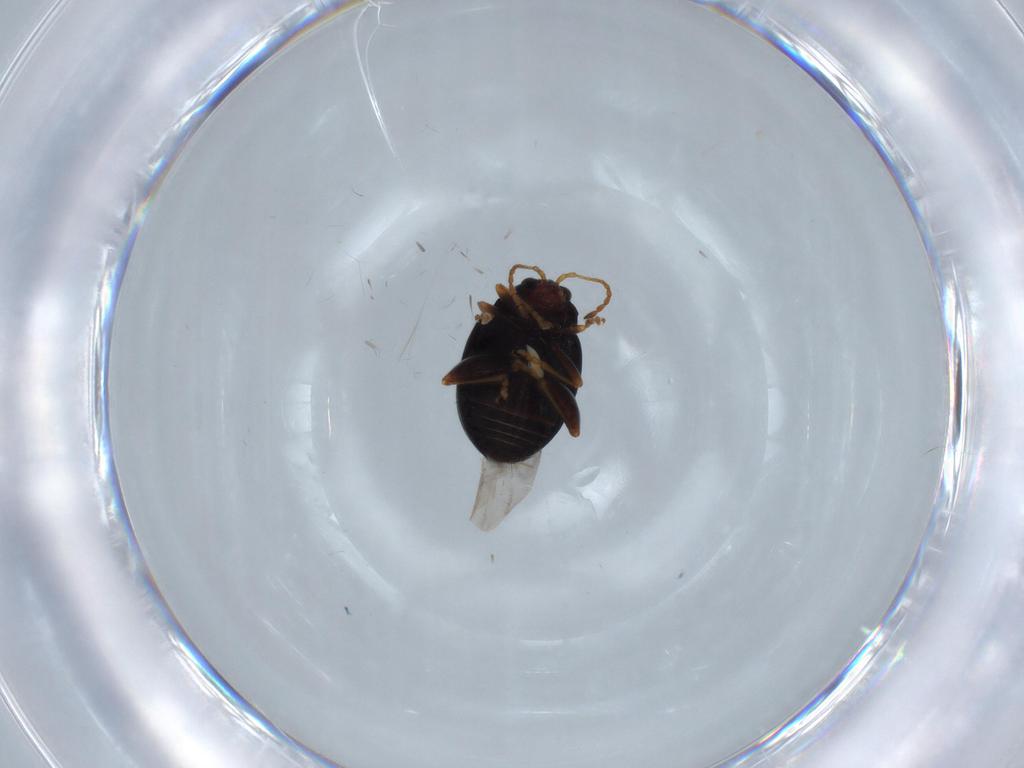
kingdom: Animalia
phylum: Arthropoda
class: Insecta
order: Coleoptera
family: Chrysomelidae
